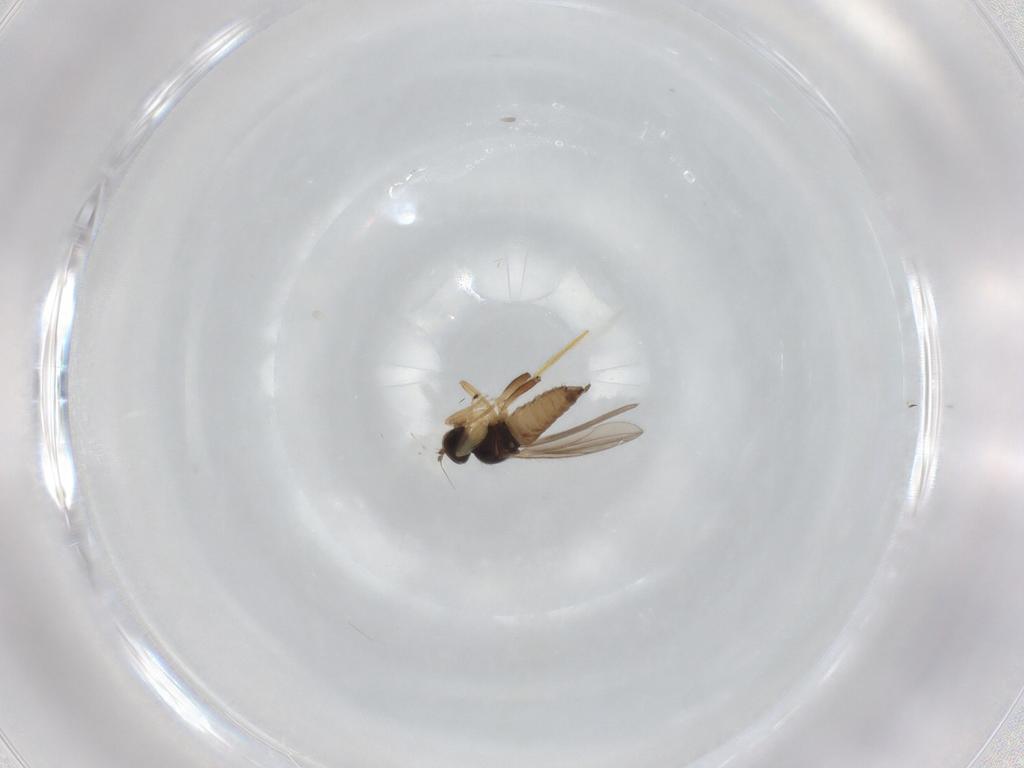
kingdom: Animalia
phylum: Arthropoda
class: Insecta
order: Diptera
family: Hybotidae
